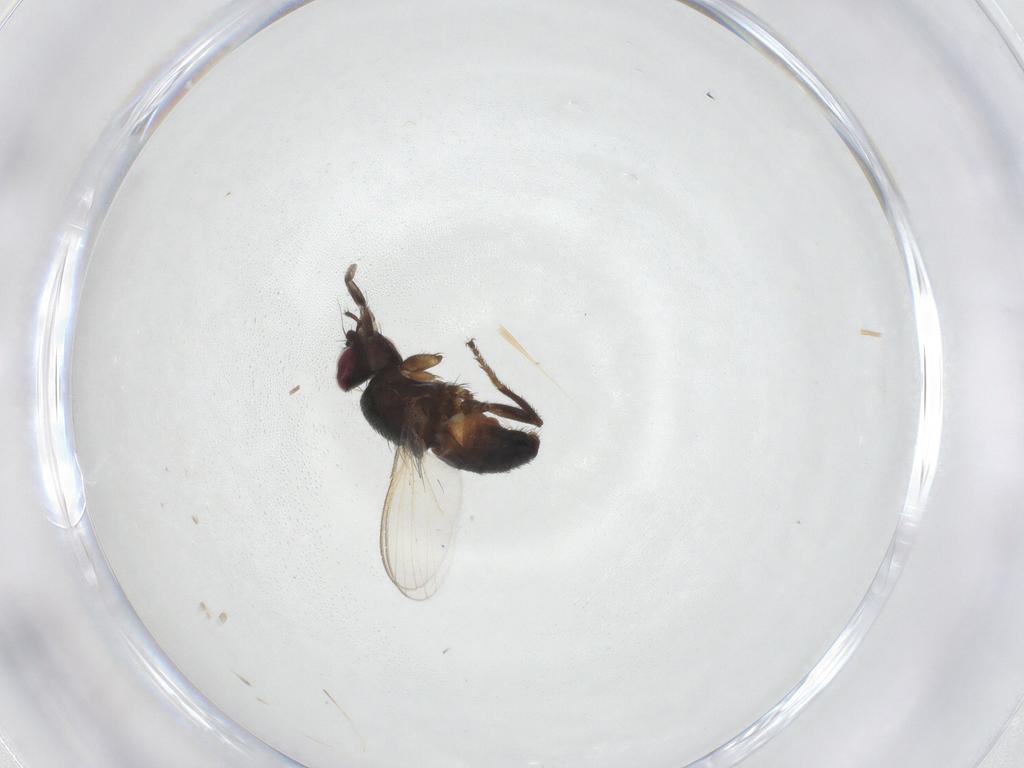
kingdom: Animalia
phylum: Arthropoda
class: Insecta
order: Diptera
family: Milichiidae
